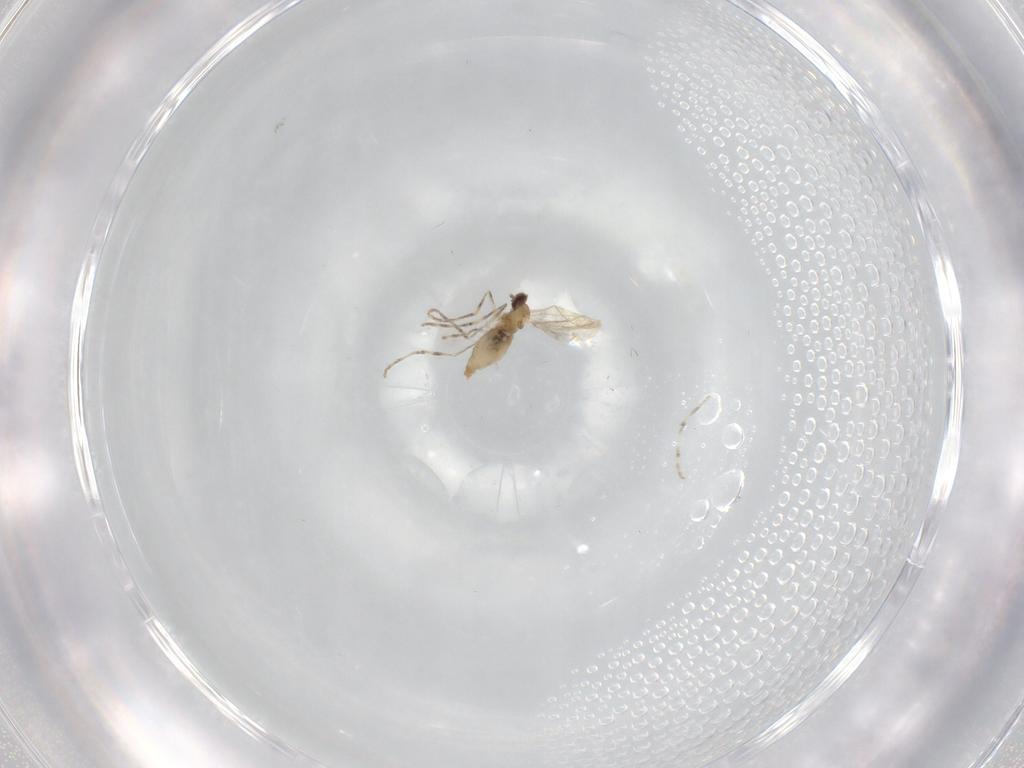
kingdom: Animalia
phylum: Arthropoda
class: Insecta
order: Diptera
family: Cecidomyiidae
